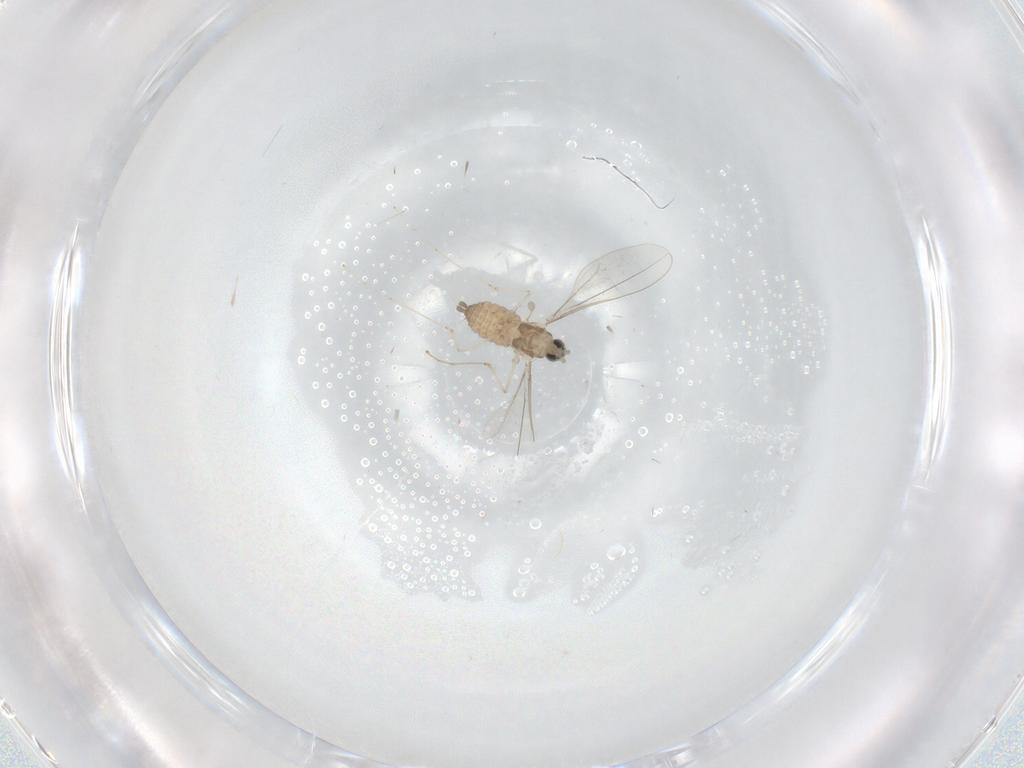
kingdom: Animalia
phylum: Arthropoda
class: Insecta
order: Diptera
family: Cecidomyiidae
